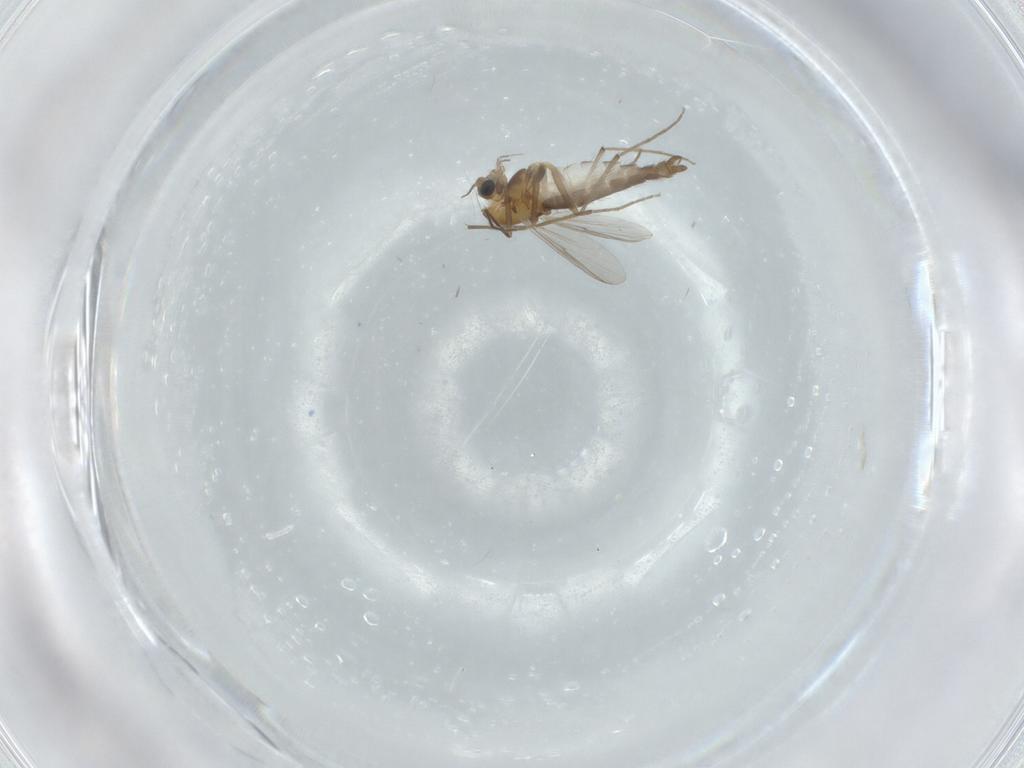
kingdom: Animalia
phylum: Arthropoda
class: Insecta
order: Diptera
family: Chironomidae
